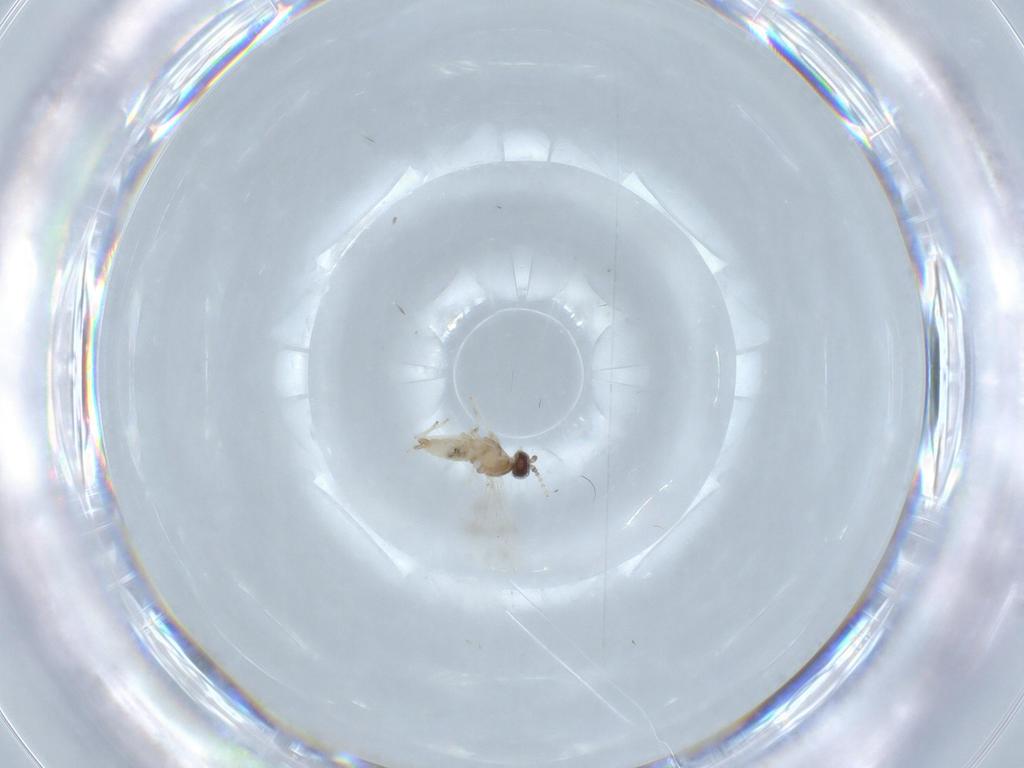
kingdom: Animalia
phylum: Arthropoda
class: Insecta
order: Diptera
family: Cecidomyiidae
